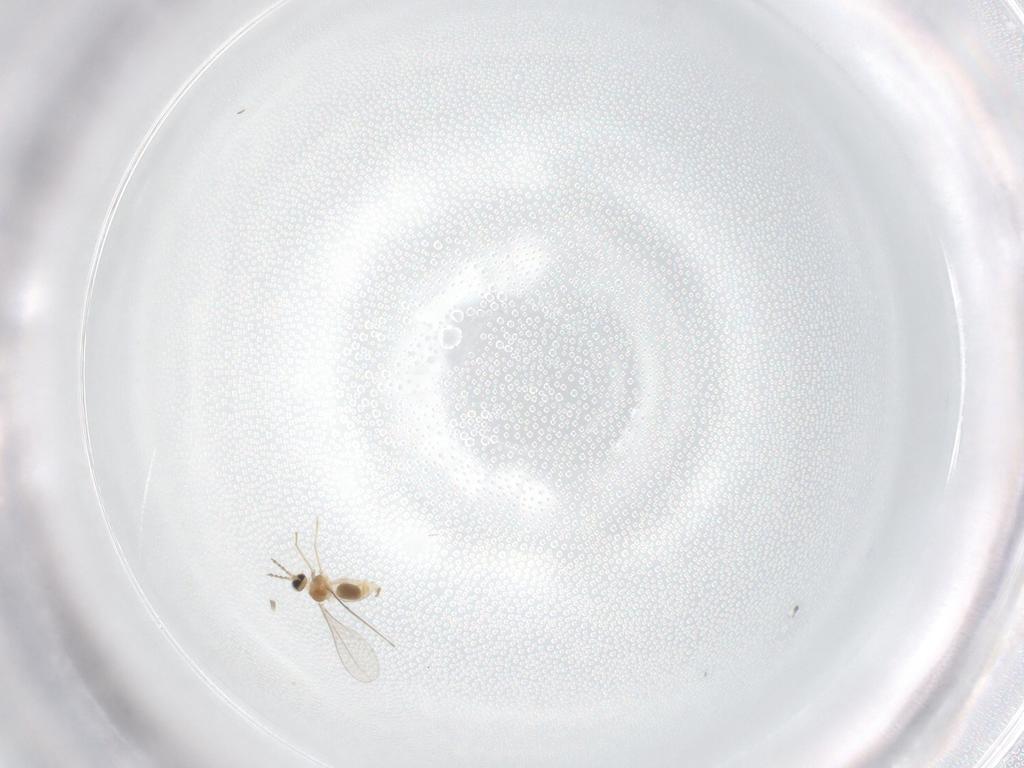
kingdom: Animalia
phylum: Arthropoda
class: Insecta
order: Diptera
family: Cecidomyiidae
